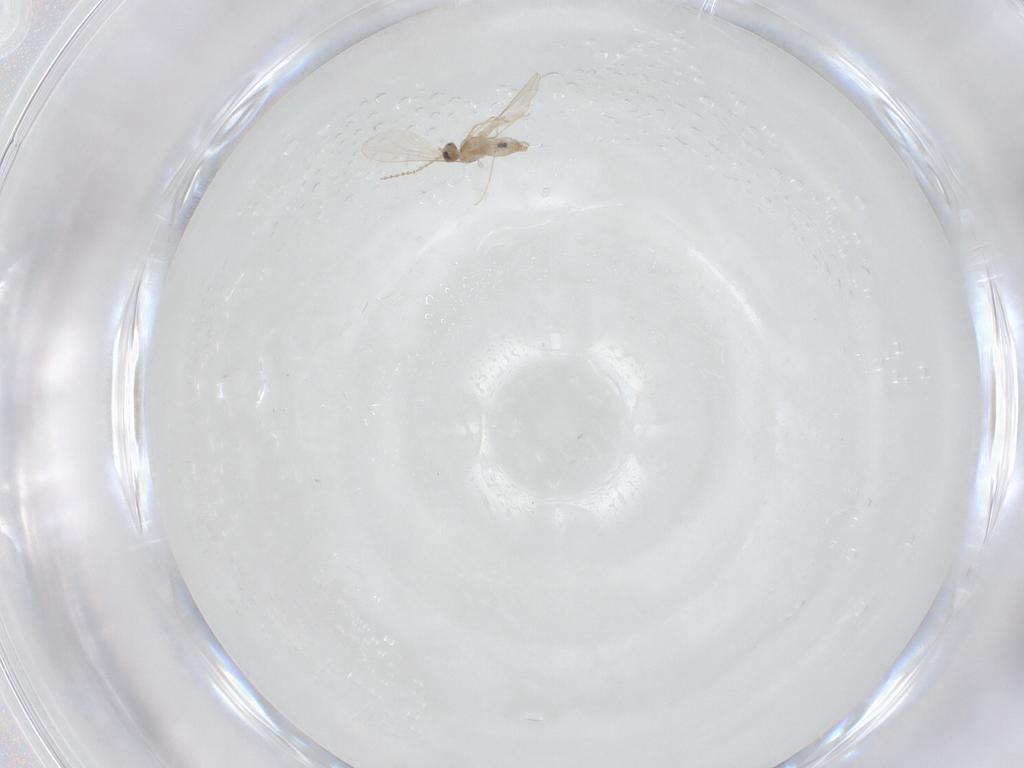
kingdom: Animalia
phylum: Arthropoda
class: Insecta
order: Diptera
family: Cecidomyiidae
